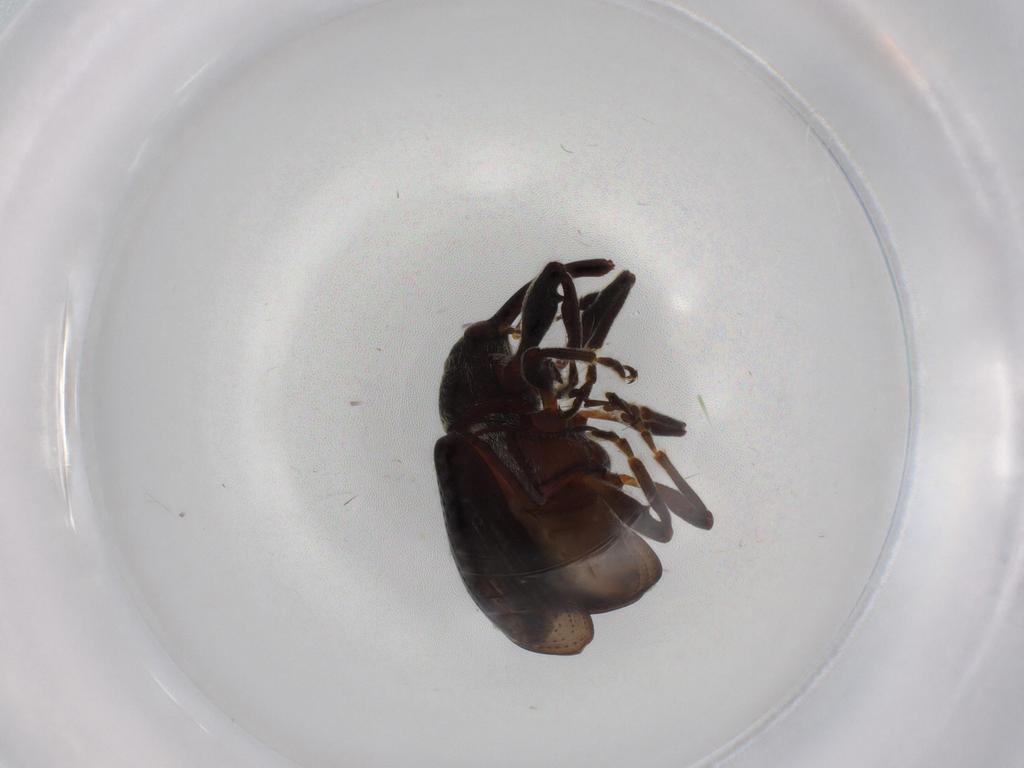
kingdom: Animalia
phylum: Arthropoda
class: Insecta
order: Coleoptera
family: Curculionidae
